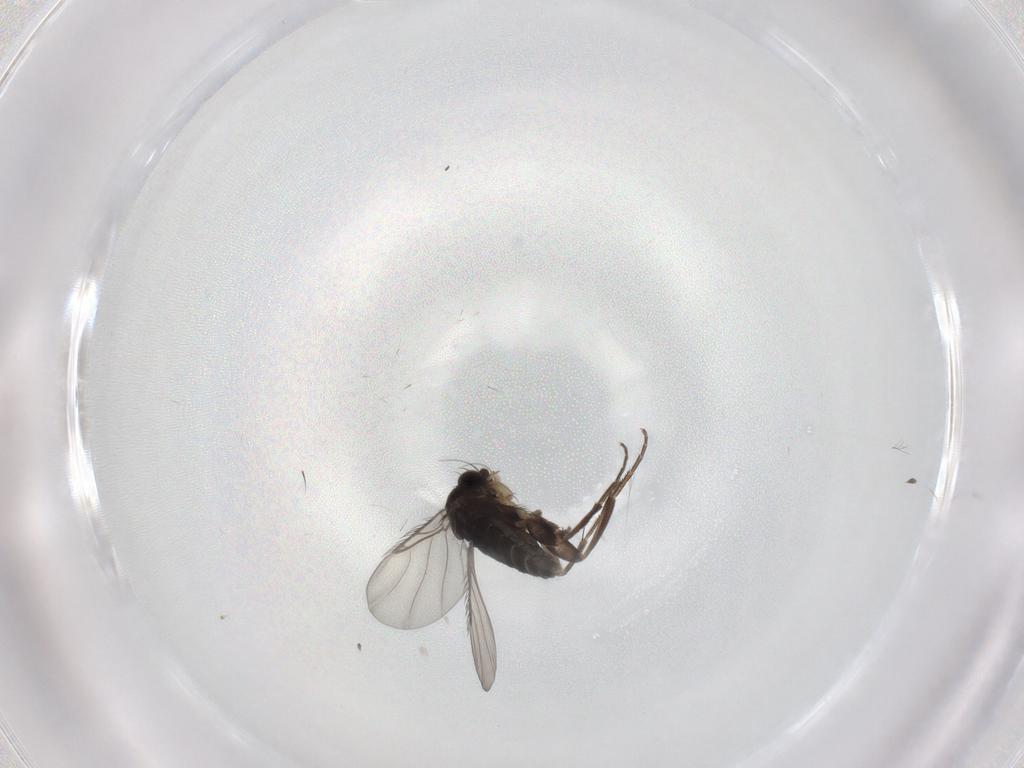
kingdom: Animalia
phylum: Arthropoda
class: Insecta
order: Diptera
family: Phoridae
